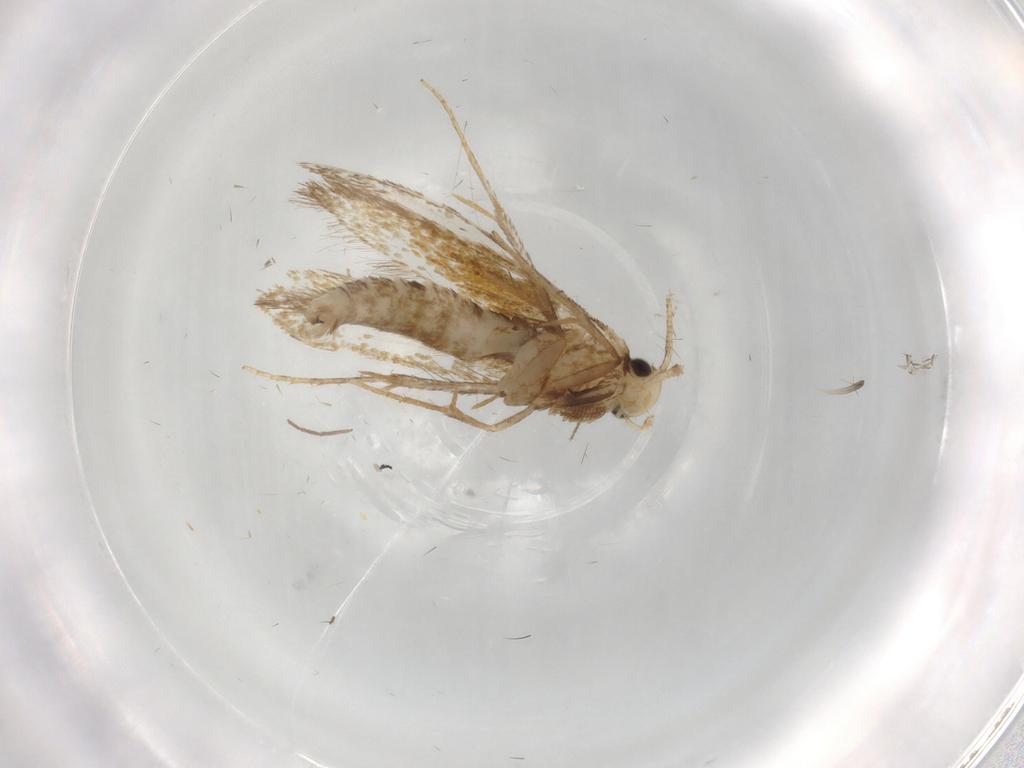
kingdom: Animalia
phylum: Arthropoda
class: Insecta
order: Lepidoptera
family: Tineidae
